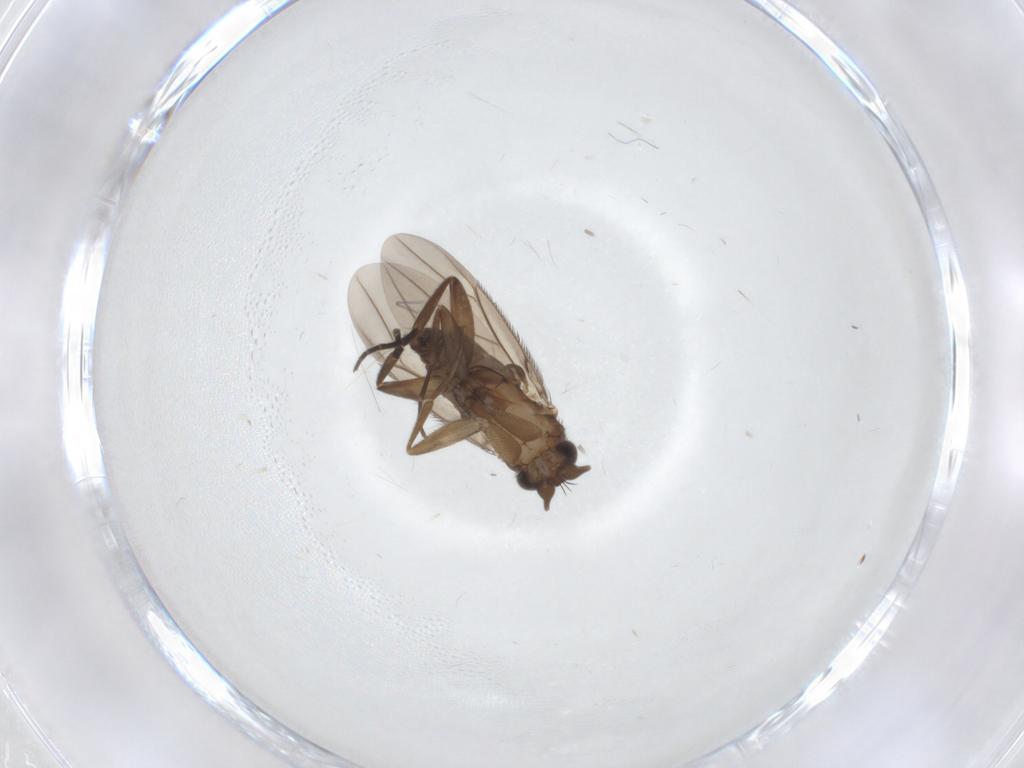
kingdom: Animalia
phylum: Arthropoda
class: Insecta
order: Diptera
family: Phoridae
